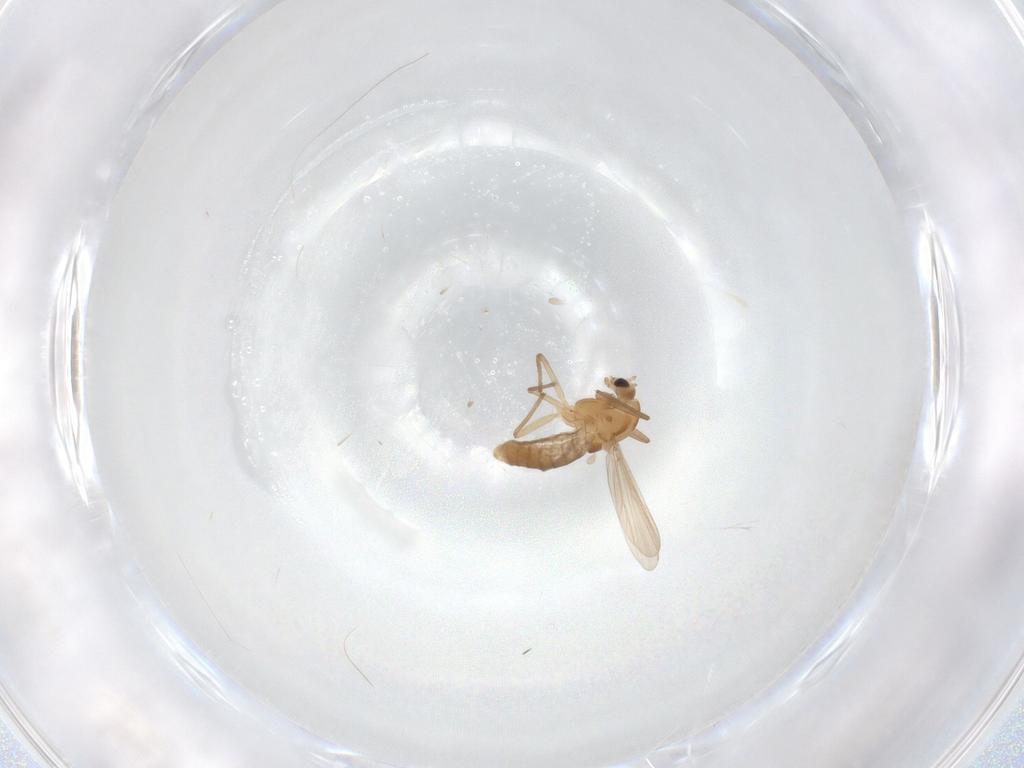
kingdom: Animalia
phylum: Arthropoda
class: Insecta
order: Diptera
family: Chironomidae
